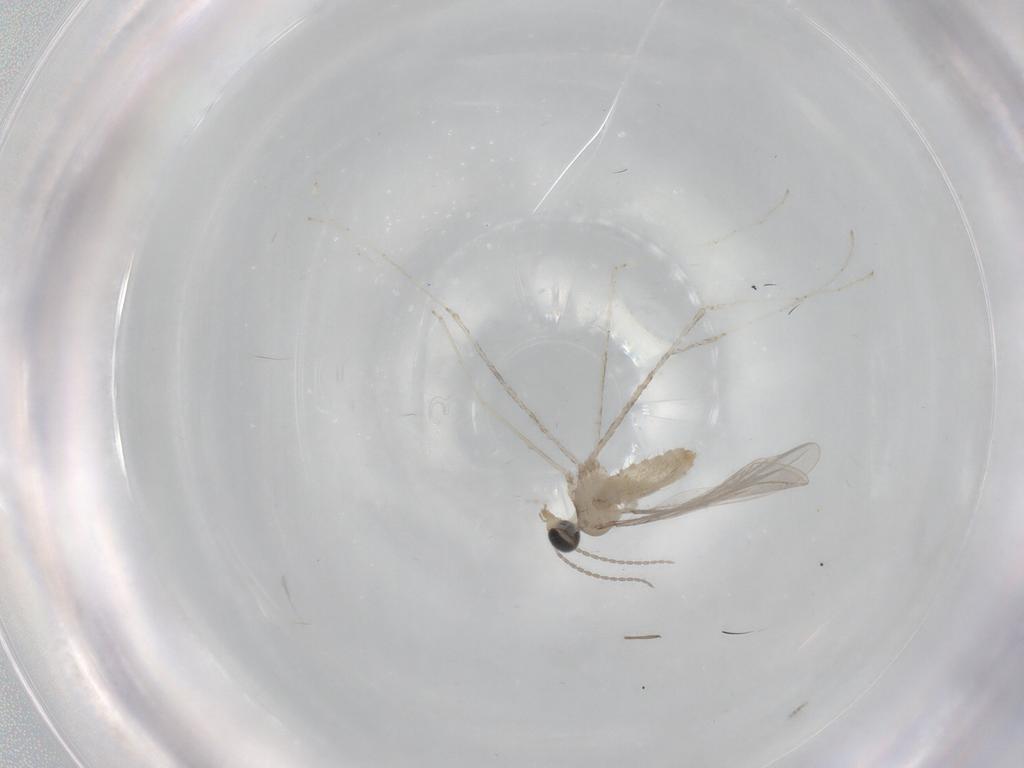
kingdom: Animalia
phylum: Arthropoda
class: Insecta
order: Diptera
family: Cecidomyiidae
